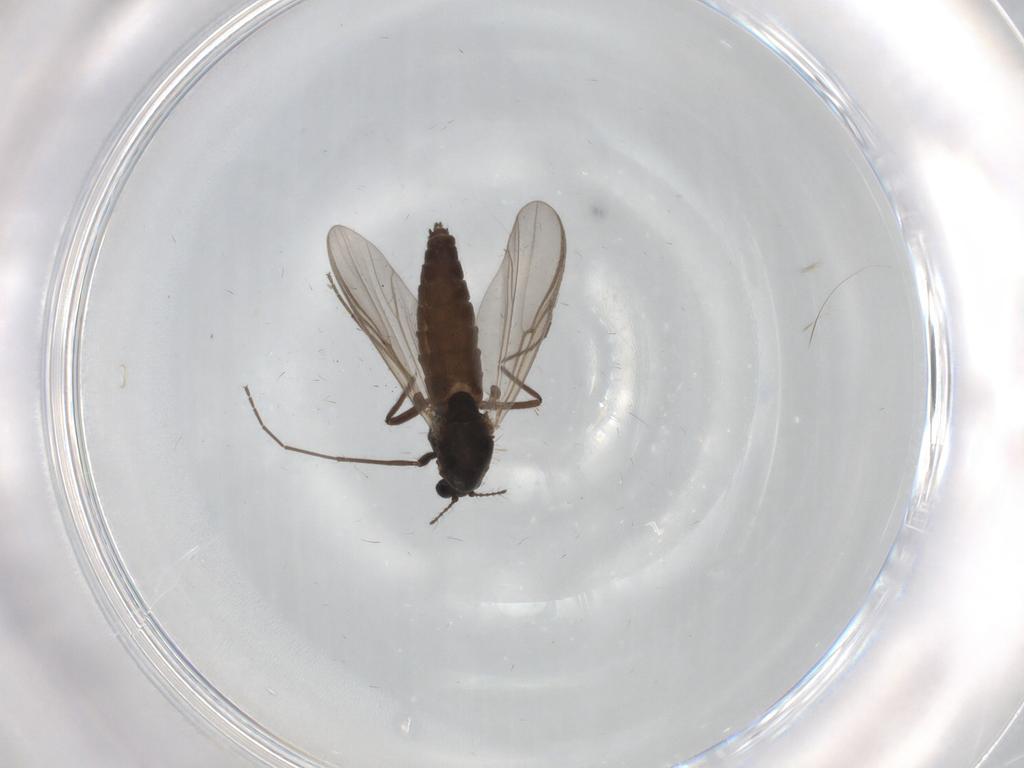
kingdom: Animalia
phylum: Arthropoda
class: Insecta
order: Diptera
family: Chironomidae
